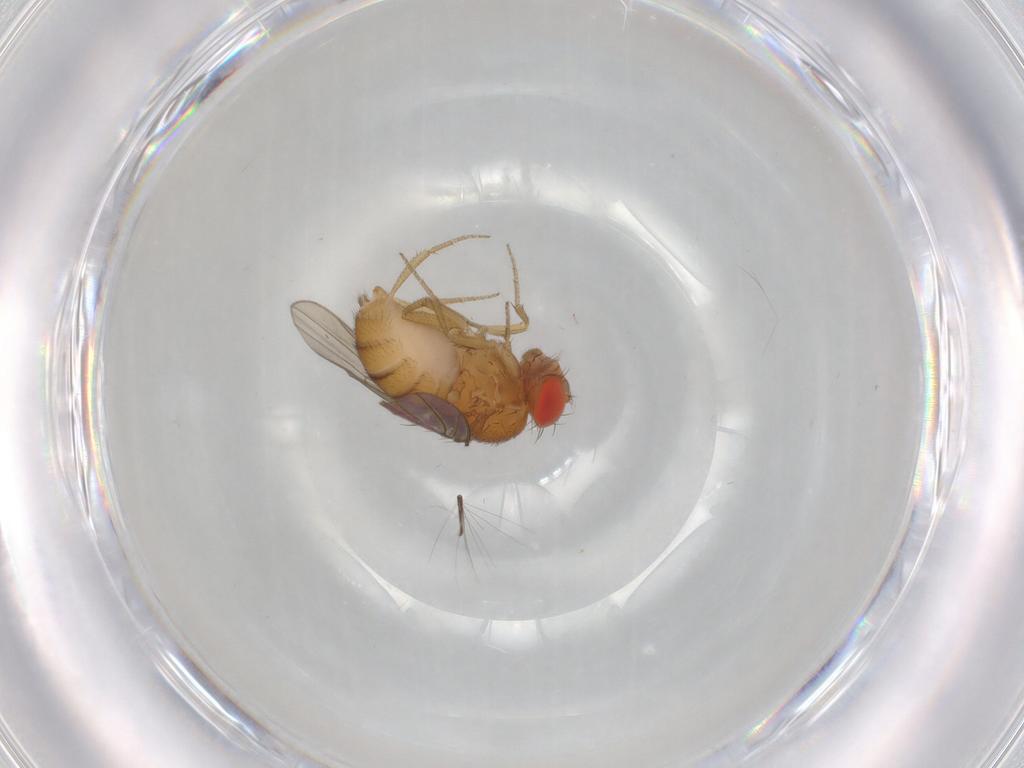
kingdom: Animalia
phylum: Arthropoda
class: Insecta
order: Diptera
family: Drosophilidae
